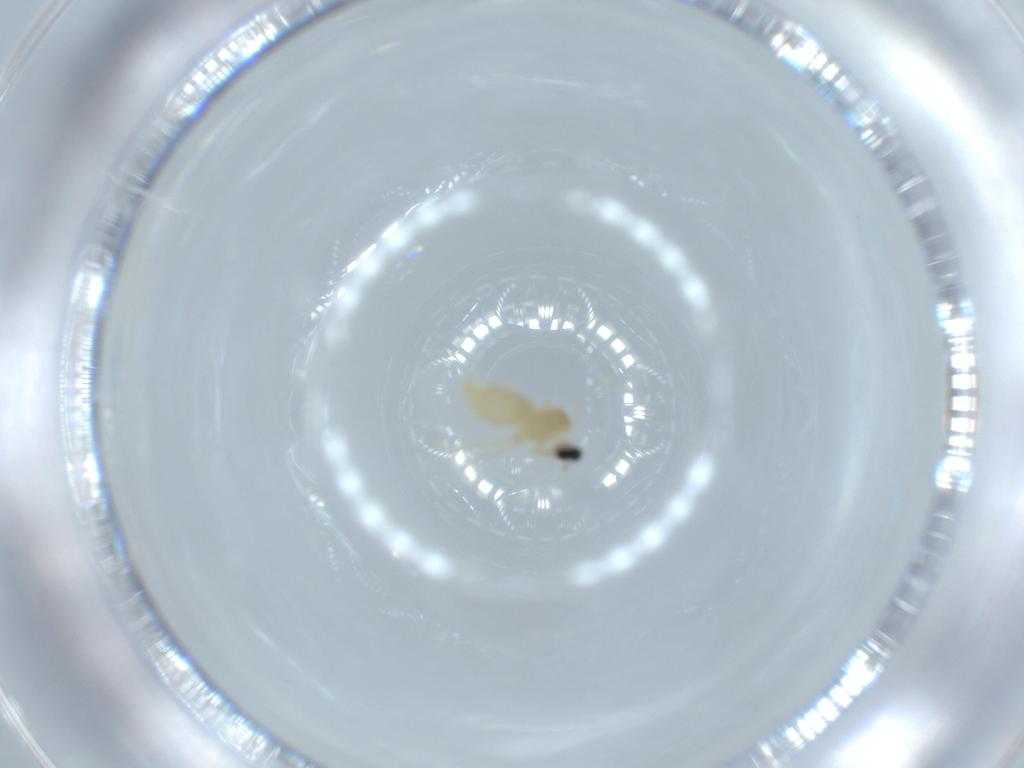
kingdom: Animalia
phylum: Arthropoda
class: Insecta
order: Diptera
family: Cecidomyiidae
